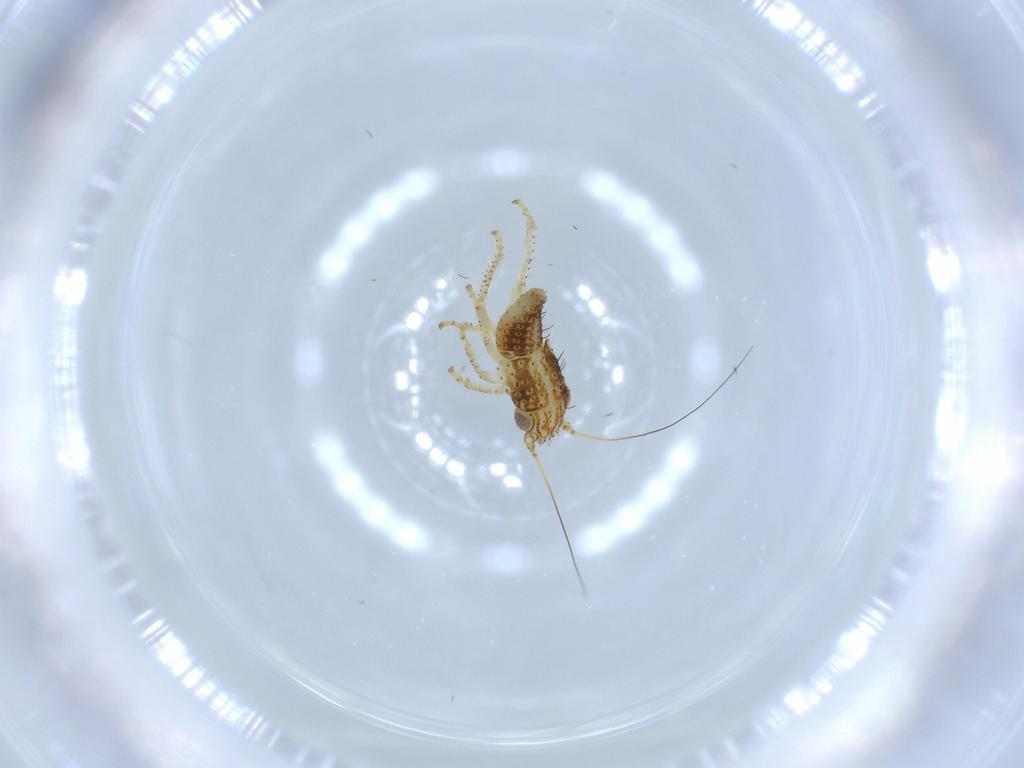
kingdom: Animalia
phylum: Arthropoda
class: Insecta
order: Hemiptera
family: Cicadellidae
